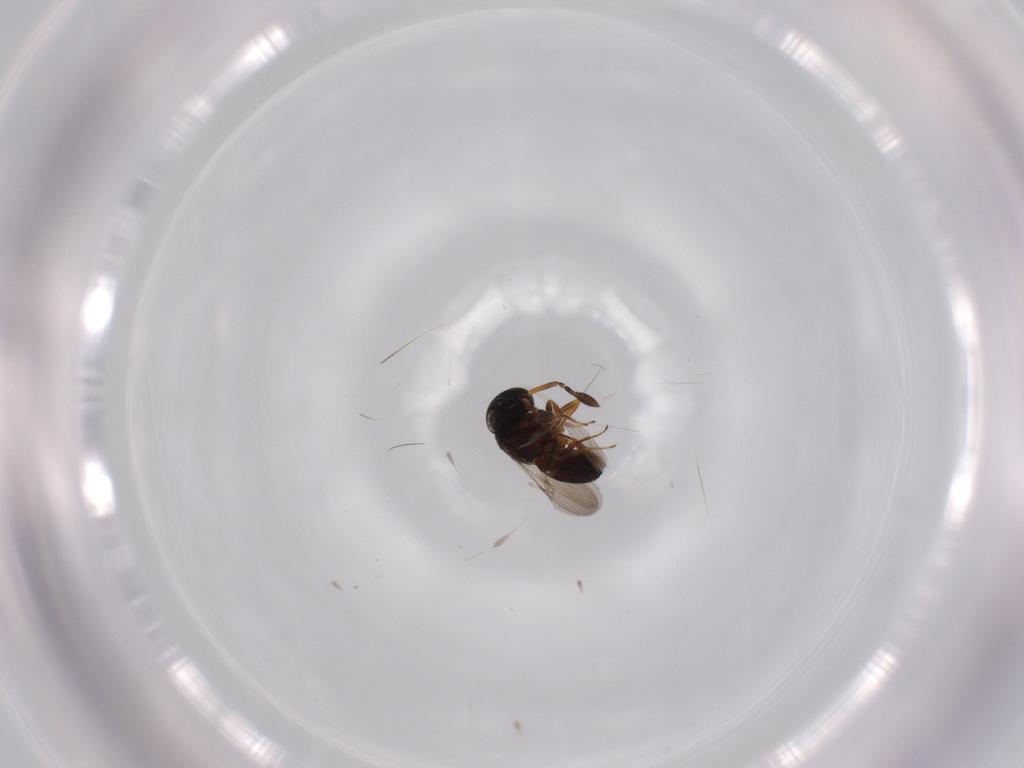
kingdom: Animalia
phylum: Arthropoda
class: Insecta
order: Hymenoptera
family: Scelionidae
